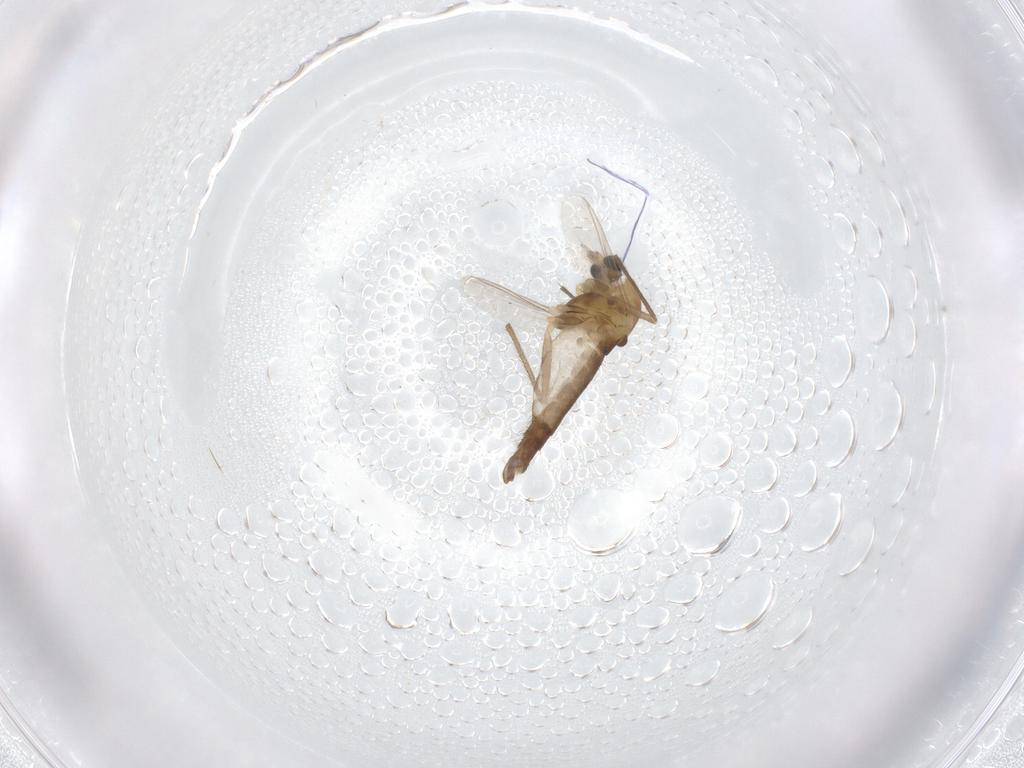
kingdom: Animalia
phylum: Arthropoda
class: Insecta
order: Diptera
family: Chironomidae
